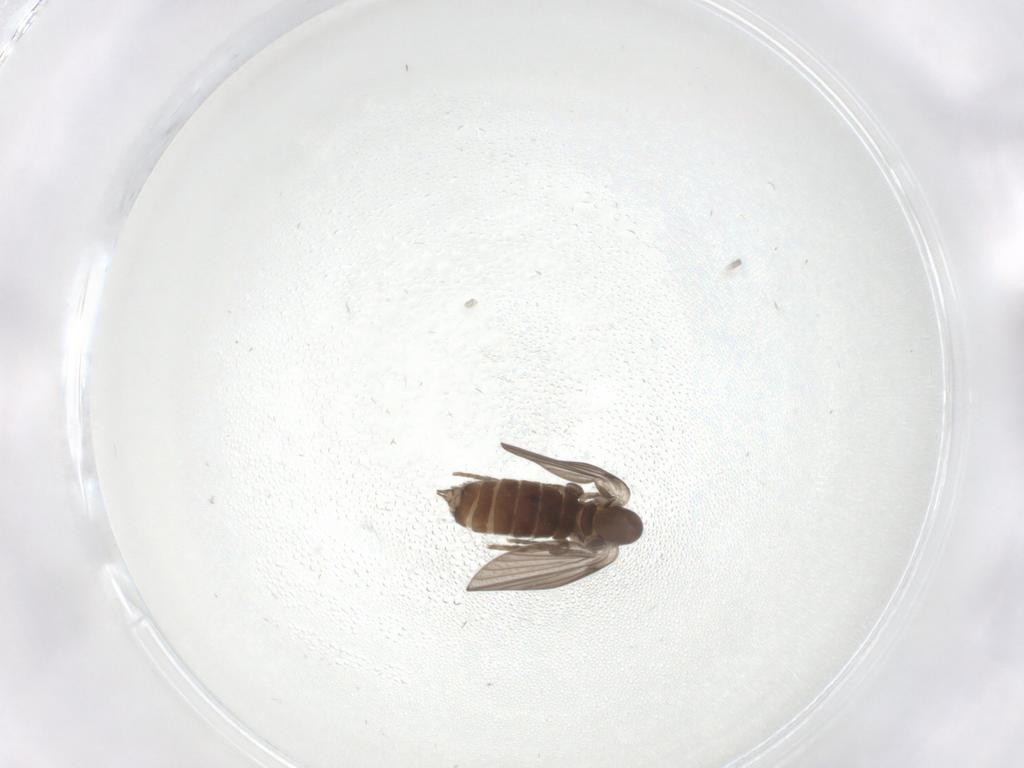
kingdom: Animalia
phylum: Arthropoda
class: Insecta
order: Diptera
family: Psychodidae
